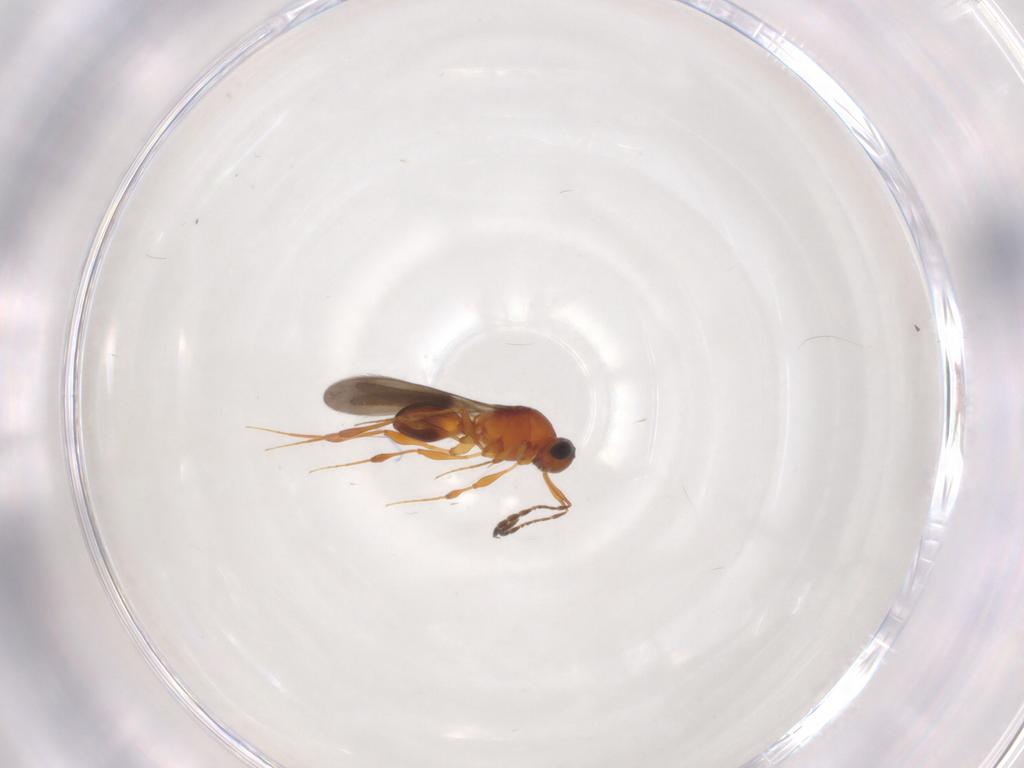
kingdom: Animalia
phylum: Arthropoda
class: Insecta
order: Hymenoptera
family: Platygastridae
